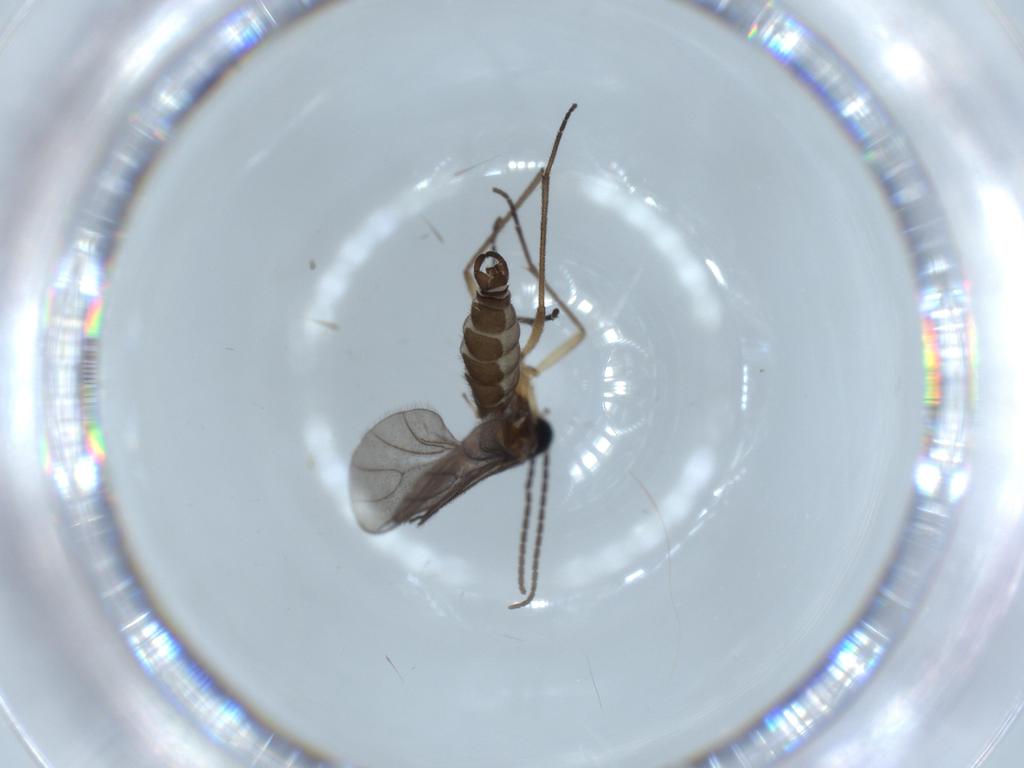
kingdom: Animalia
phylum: Arthropoda
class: Insecta
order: Diptera
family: Sciaridae
